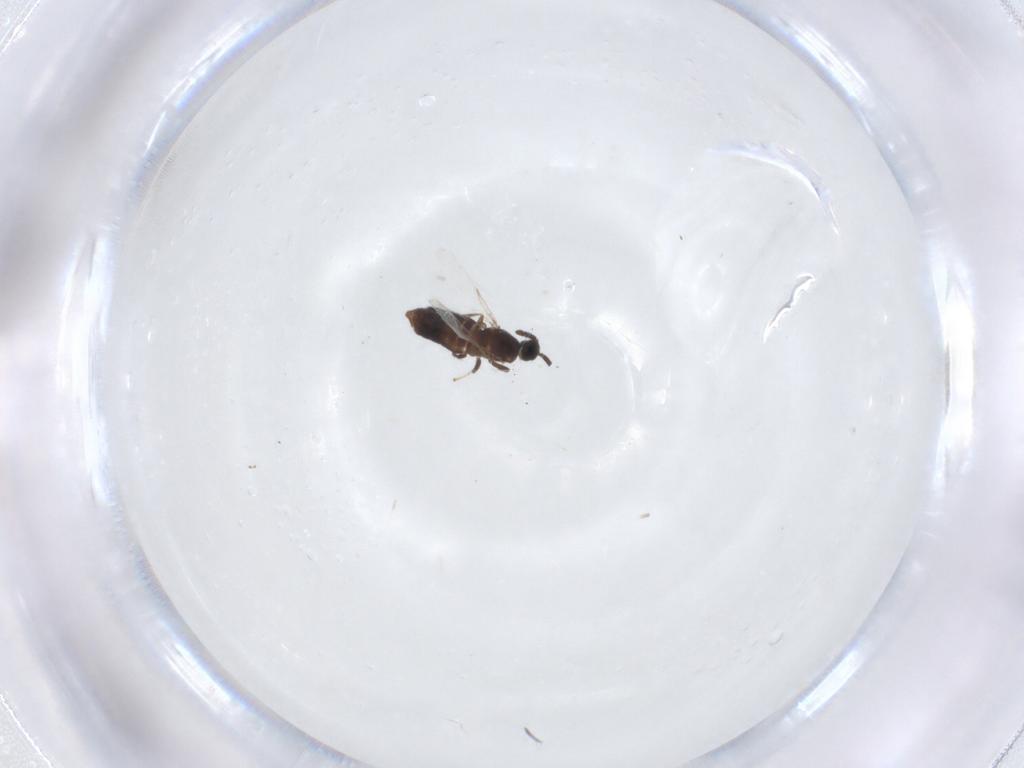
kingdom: Animalia
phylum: Arthropoda
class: Insecta
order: Diptera
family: Scatopsidae
